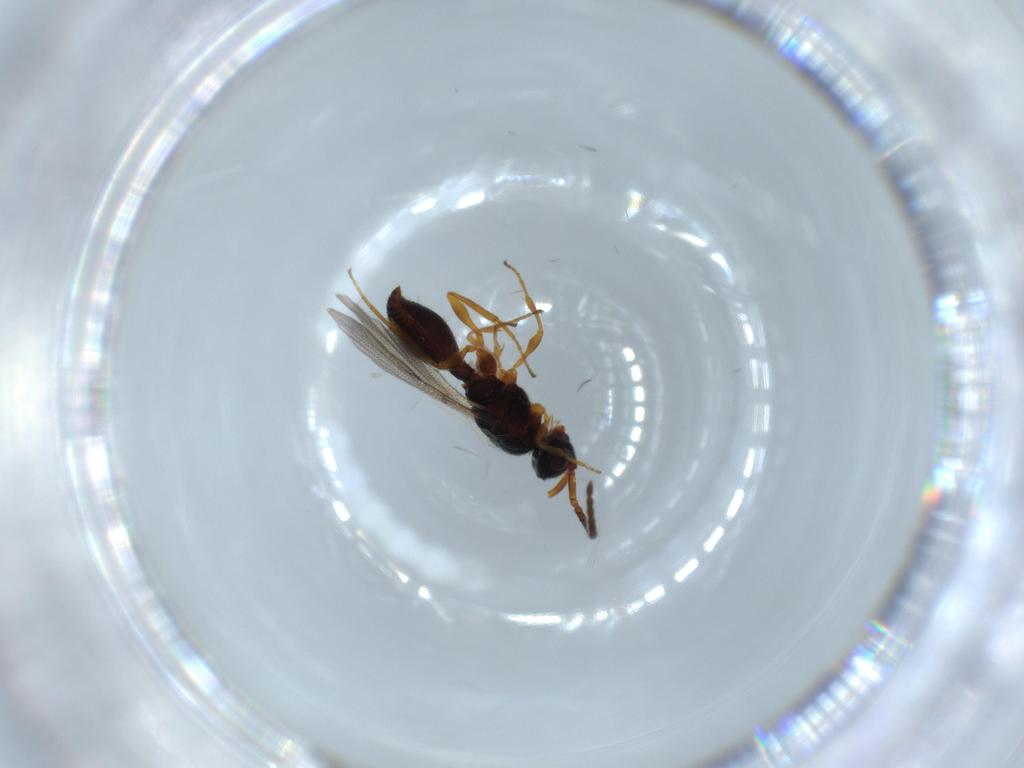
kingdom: Animalia
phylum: Arthropoda
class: Insecta
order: Hymenoptera
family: Diapriidae
